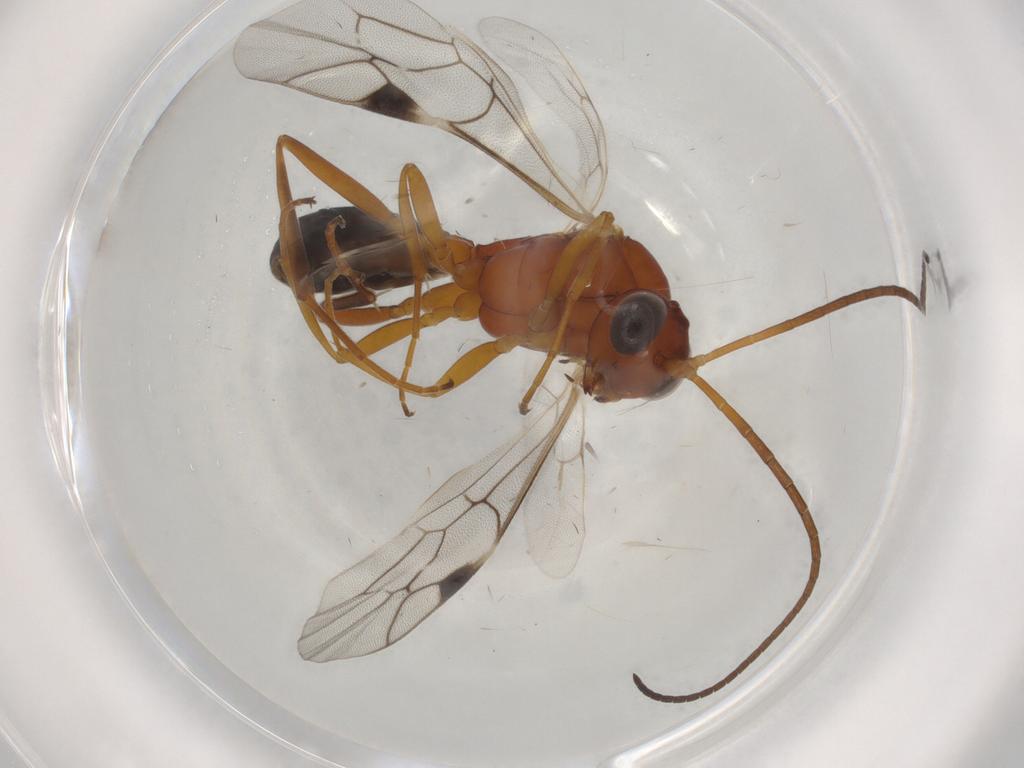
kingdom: Animalia
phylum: Arthropoda
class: Insecta
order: Hymenoptera
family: Ichneumonidae
